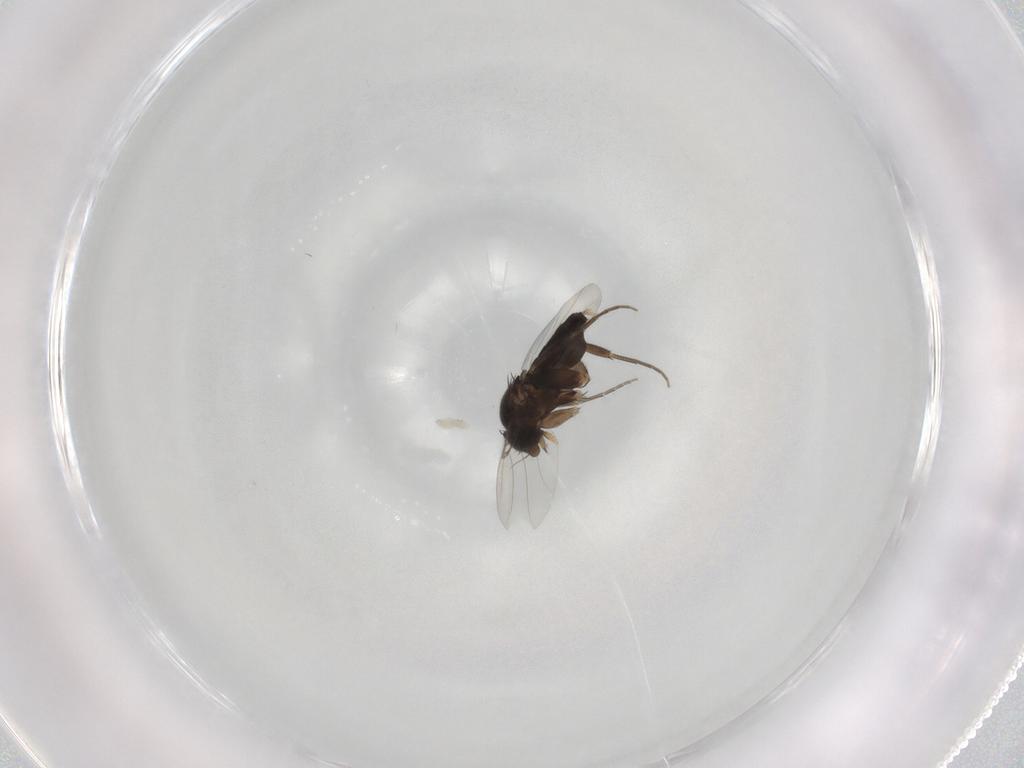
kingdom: Animalia
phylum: Arthropoda
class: Insecta
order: Diptera
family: Phoridae
